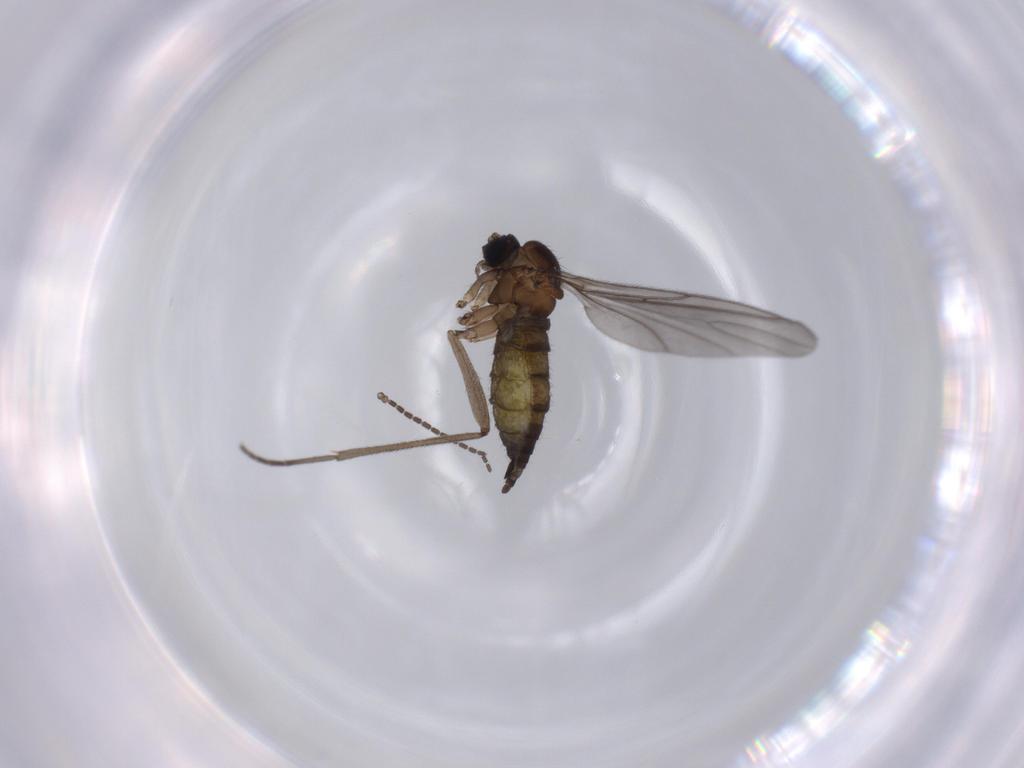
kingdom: Animalia
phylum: Arthropoda
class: Insecta
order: Diptera
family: Sciaridae
